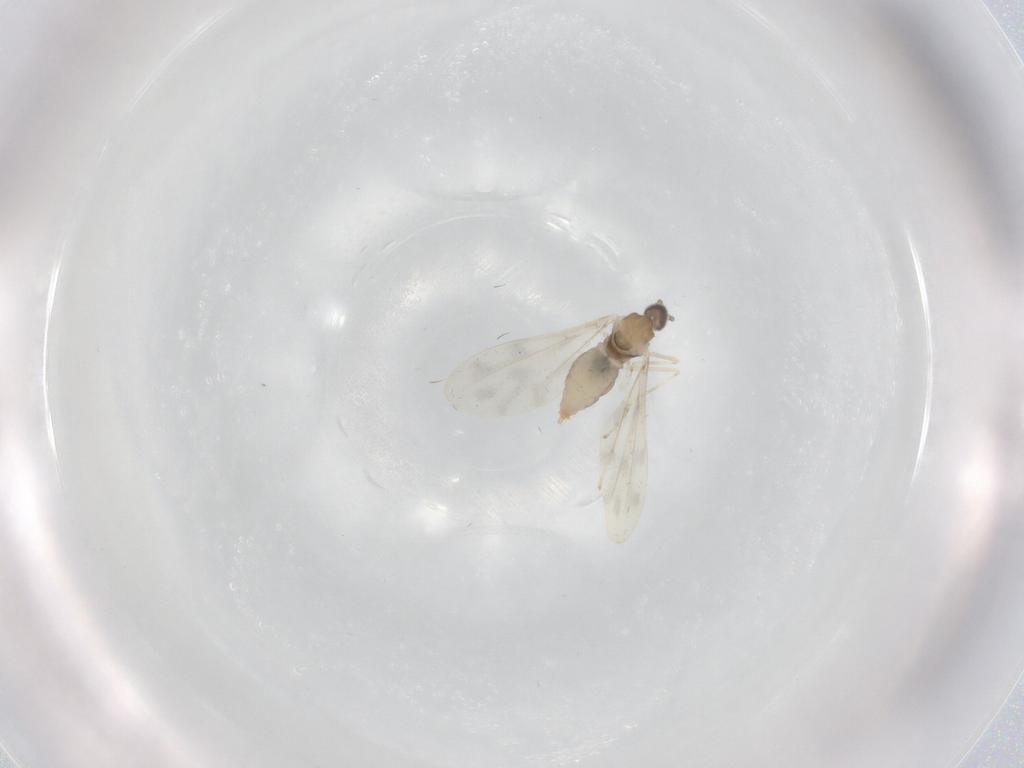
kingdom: Animalia
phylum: Arthropoda
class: Insecta
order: Diptera
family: Cecidomyiidae
